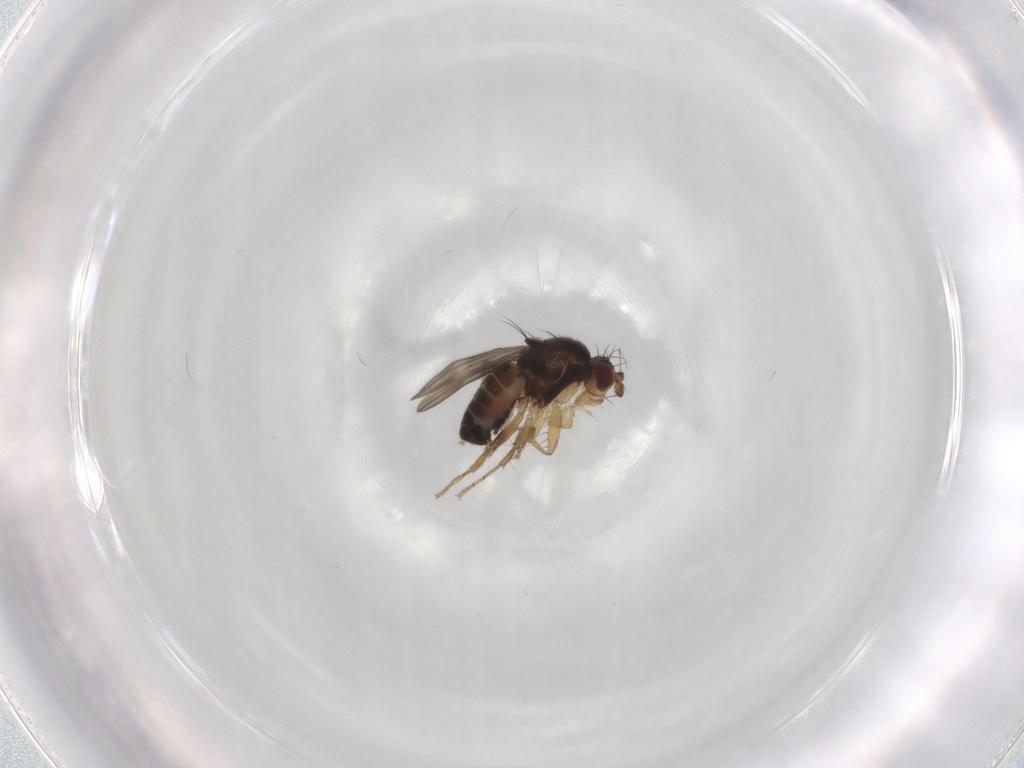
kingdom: Animalia
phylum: Arthropoda
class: Insecta
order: Diptera
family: Sphaeroceridae
